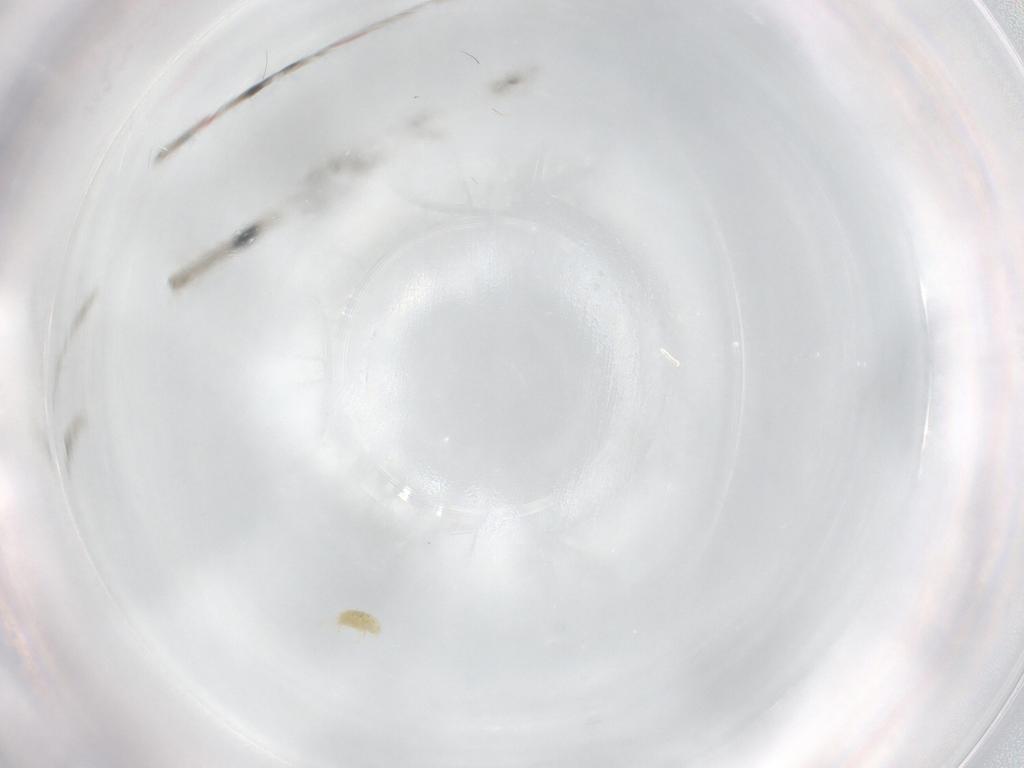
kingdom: Animalia
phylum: Arthropoda
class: Arachnida
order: Trombidiformes
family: Tetranychidae
